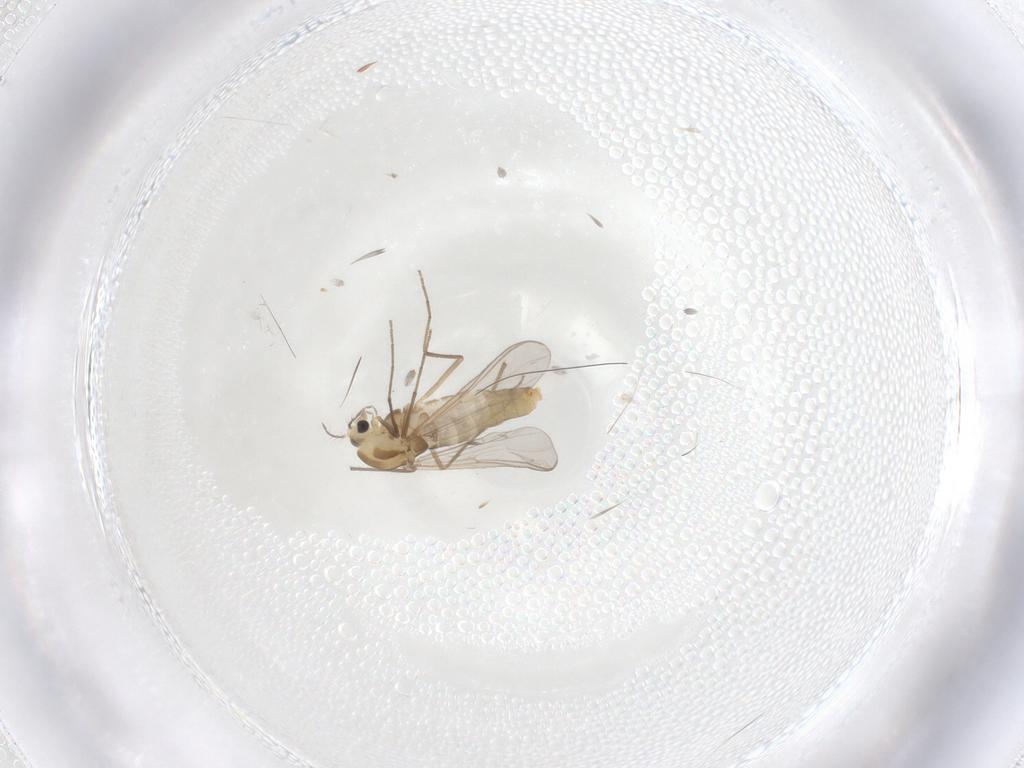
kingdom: Animalia
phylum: Arthropoda
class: Insecta
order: Diptera
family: Chironomidae
